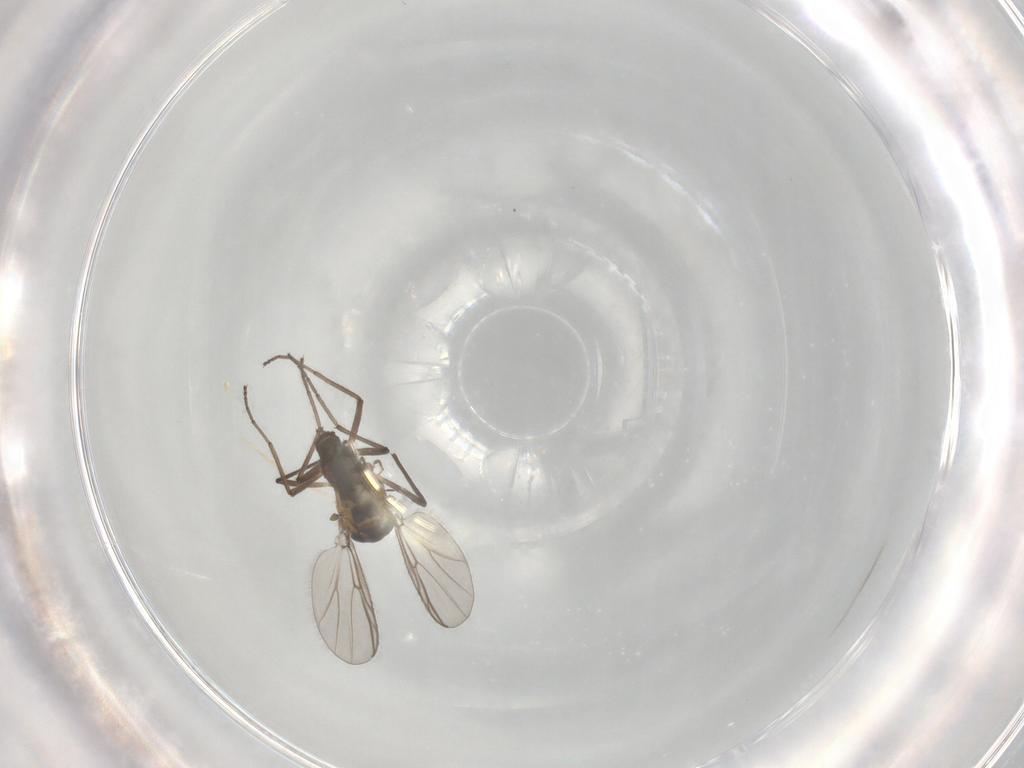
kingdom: Animalia
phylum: Arthropoda
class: Insecta
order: Diptera
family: Chironomidae
